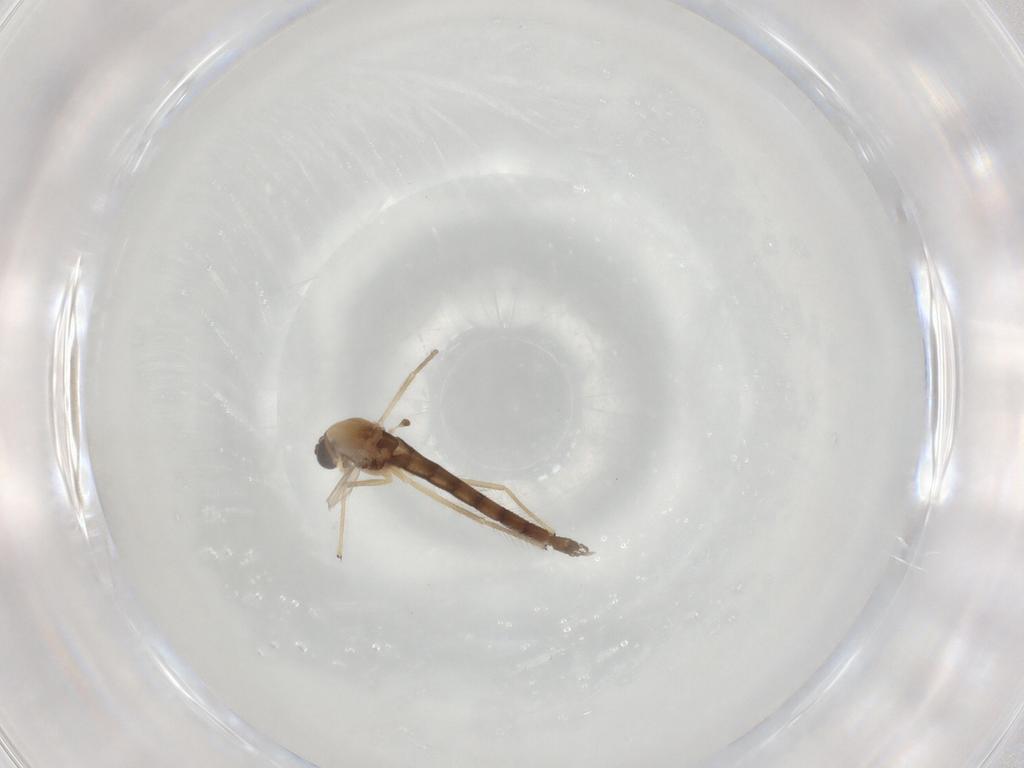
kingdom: Animalia
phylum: Arthropoda
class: Insecta
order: Diptera
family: Chironomidae
